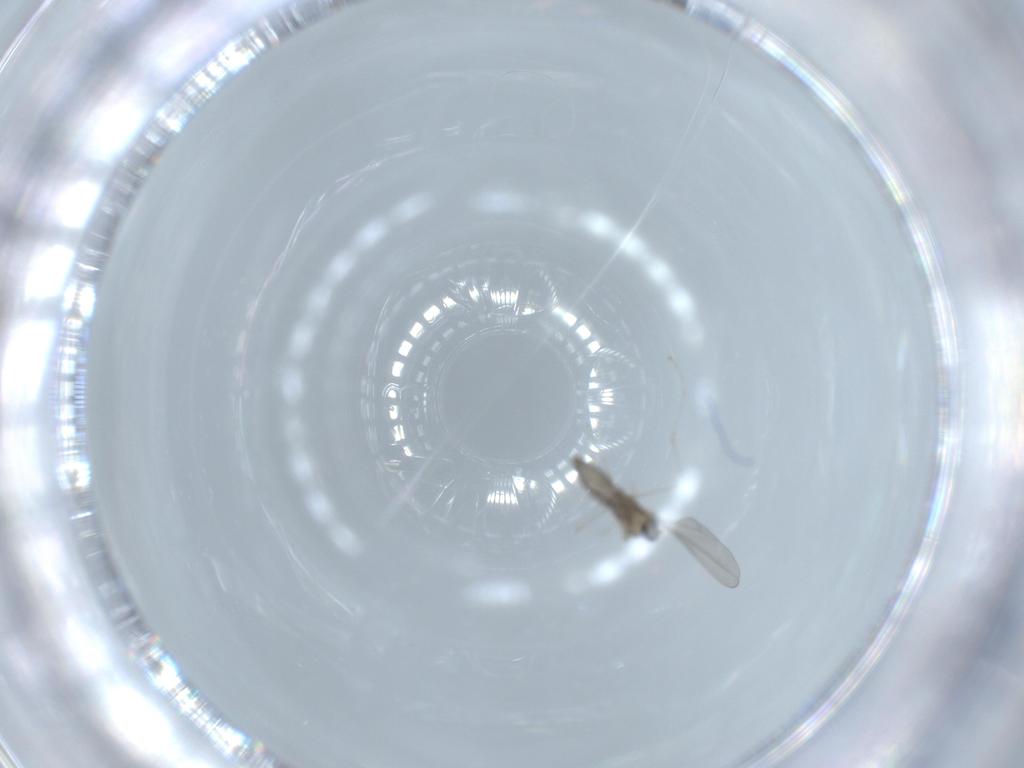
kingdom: Animalia
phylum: Arthropoda
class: Insecta
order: Diptera
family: Cecidomyiidae
